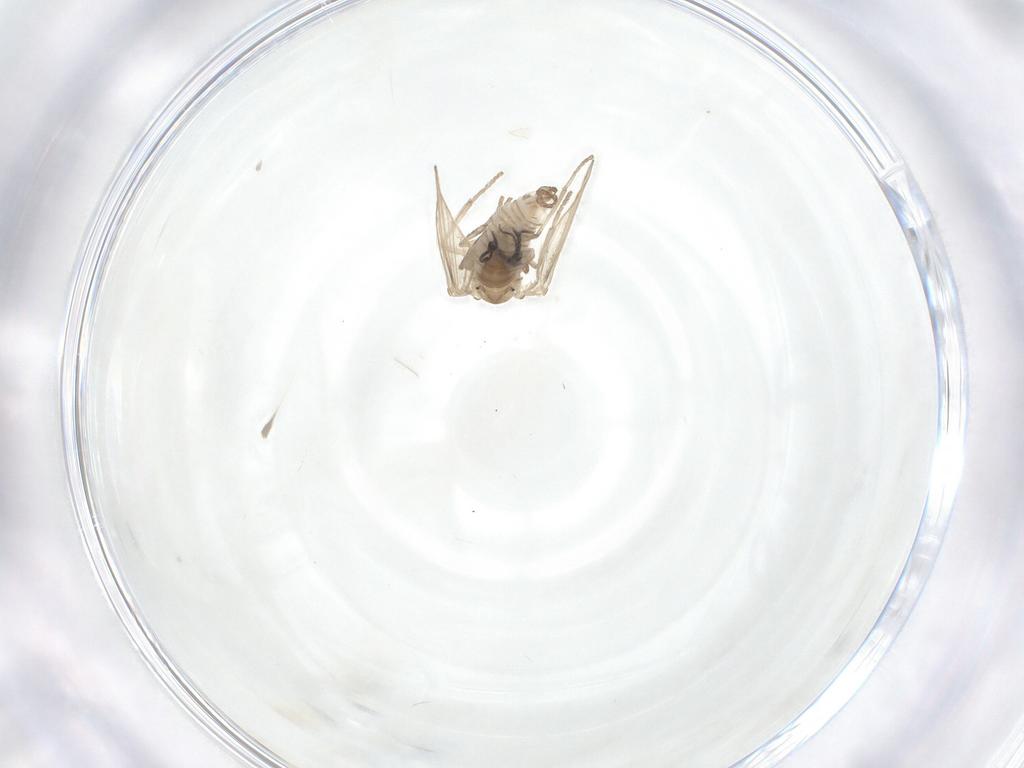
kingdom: Animalia
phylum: Arthropoda
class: Insecta
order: Diptera
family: Psychodidae
